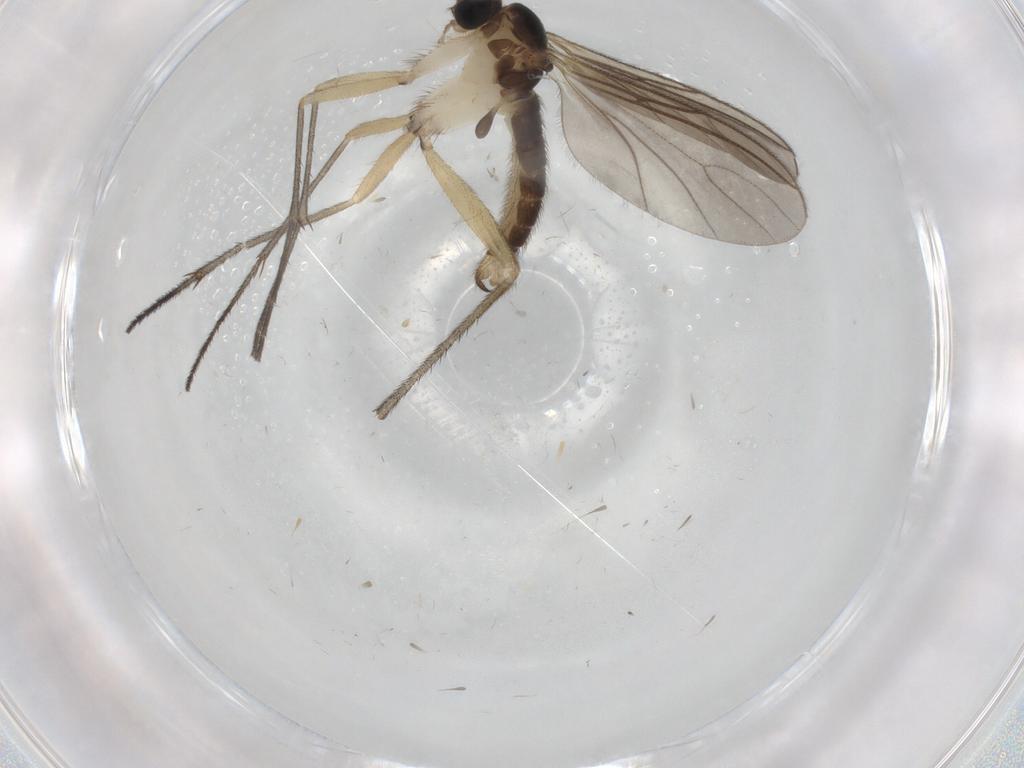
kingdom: Animalia
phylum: Arthropoda
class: Insecta
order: Diptera
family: Sciaridae
